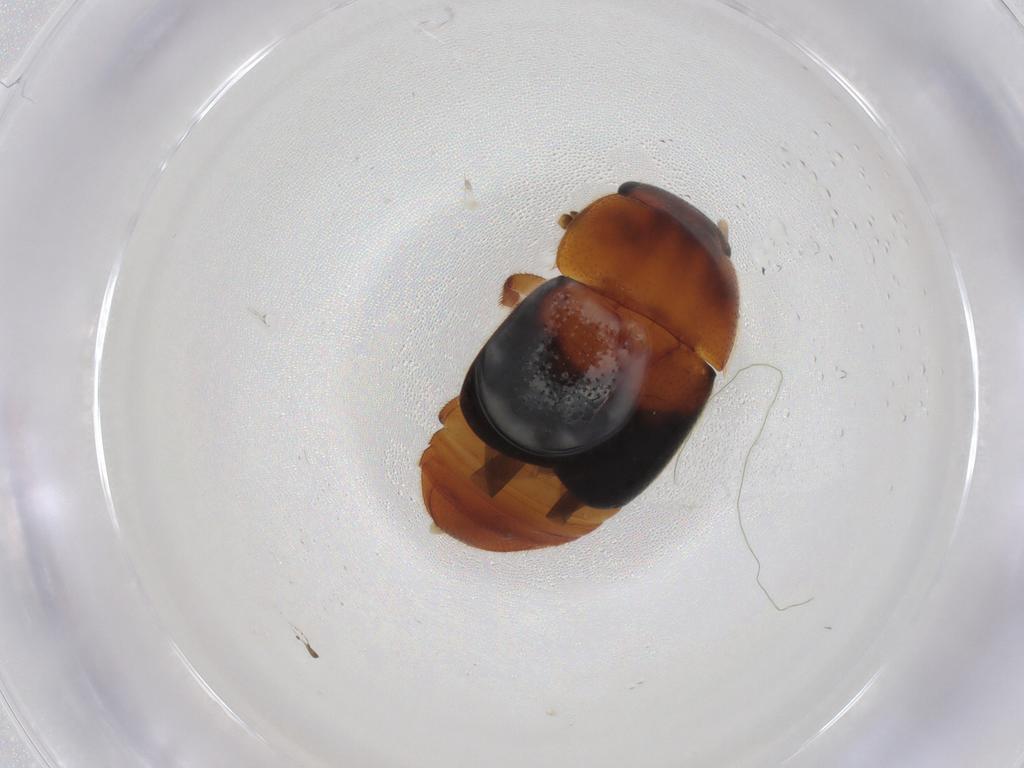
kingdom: Animalia
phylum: Arthropoda
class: Insecta
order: Coleoptera
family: Nitidulidae
